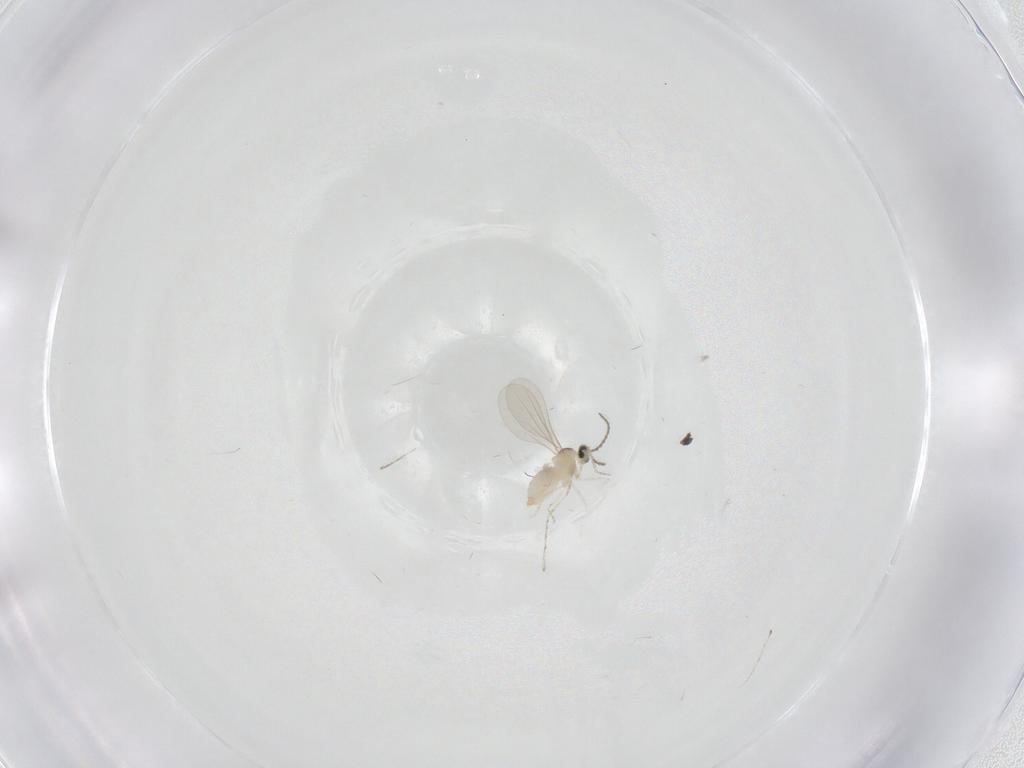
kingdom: Animalia
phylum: Arthropoda
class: Insecta
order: Diptera
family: Cecidomyiidae
